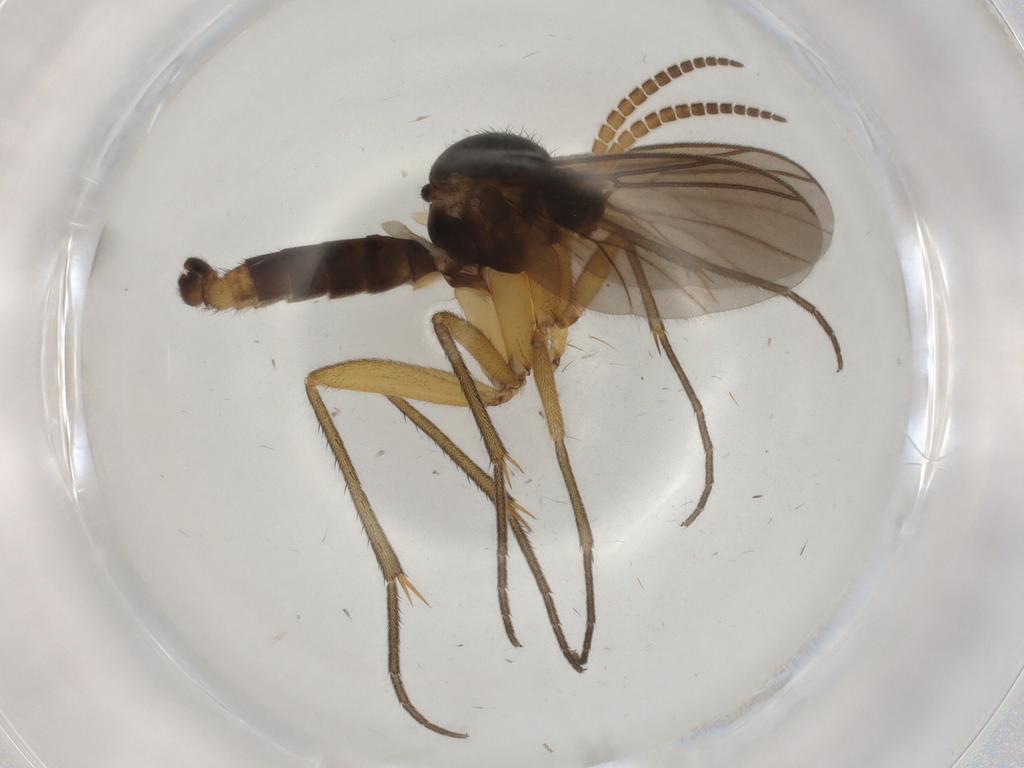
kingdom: Animalia
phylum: Arthropoda
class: Insecta
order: Diptera
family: Mycetophilidae
